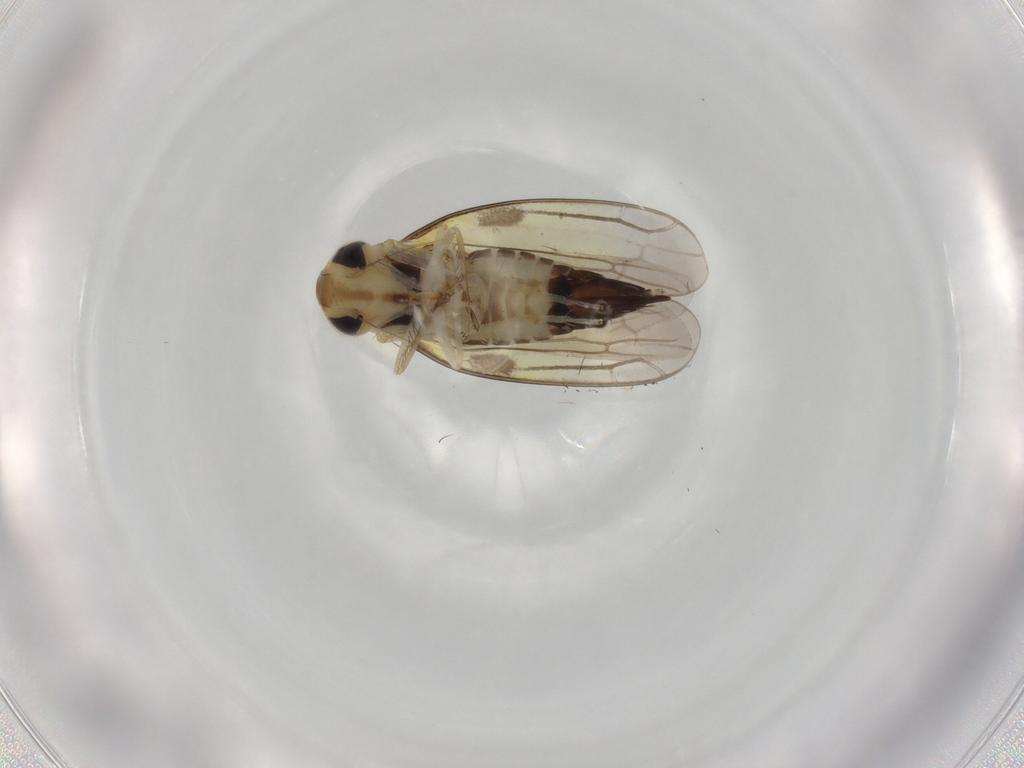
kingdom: Animalia
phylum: Arthropoda
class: Insecta
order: Hemiptera
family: Cicadellidae
